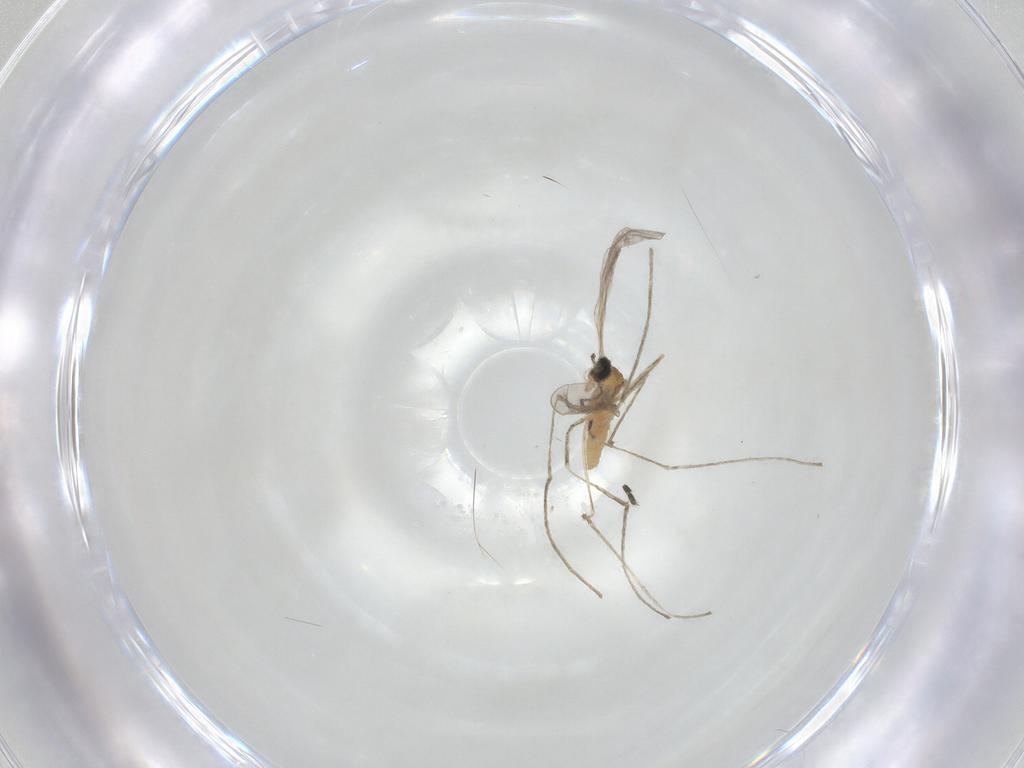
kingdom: Animalia
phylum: Arthropoda
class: Insecta
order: Diptera
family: Cecidomyiidae
